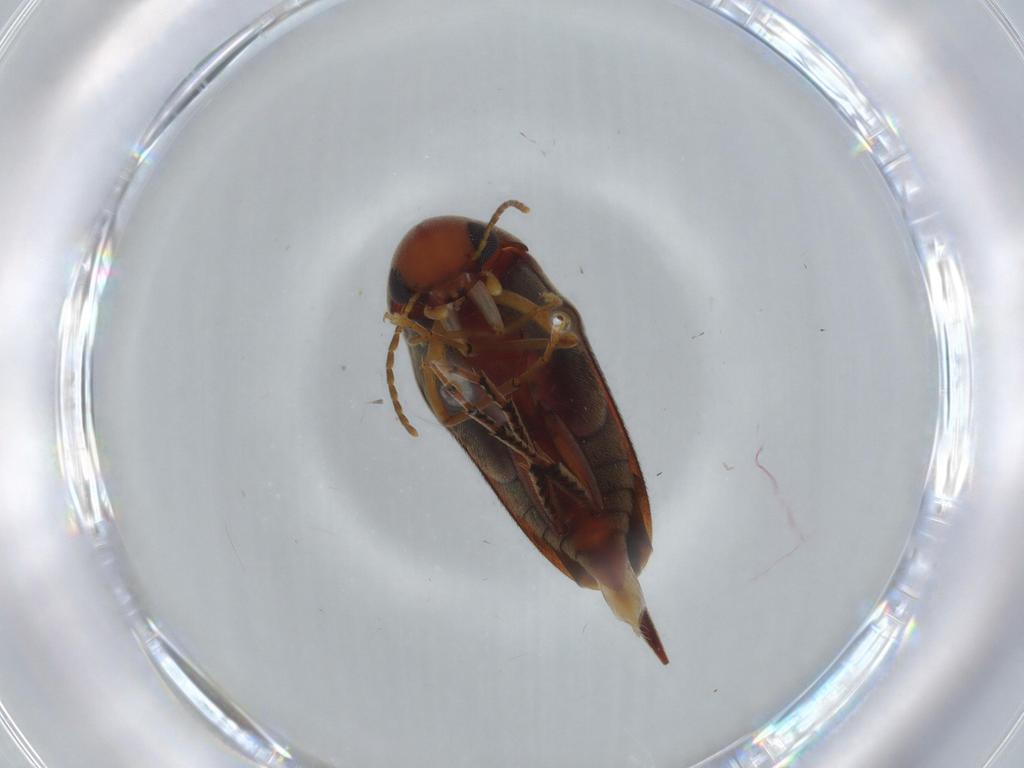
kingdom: Animalia
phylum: Arthropoda
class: Insecta
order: Coleoptera
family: Mordellidae
